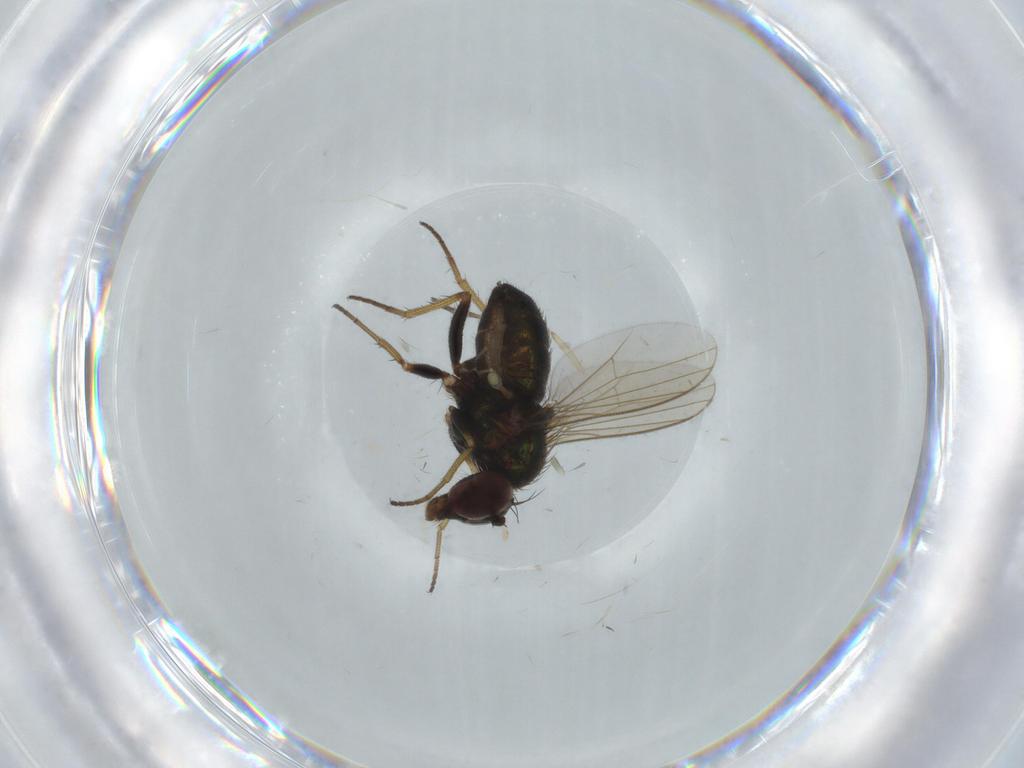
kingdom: Animalia
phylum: Arthropoda
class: Insecta
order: Diptera
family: Dolichopodidae
